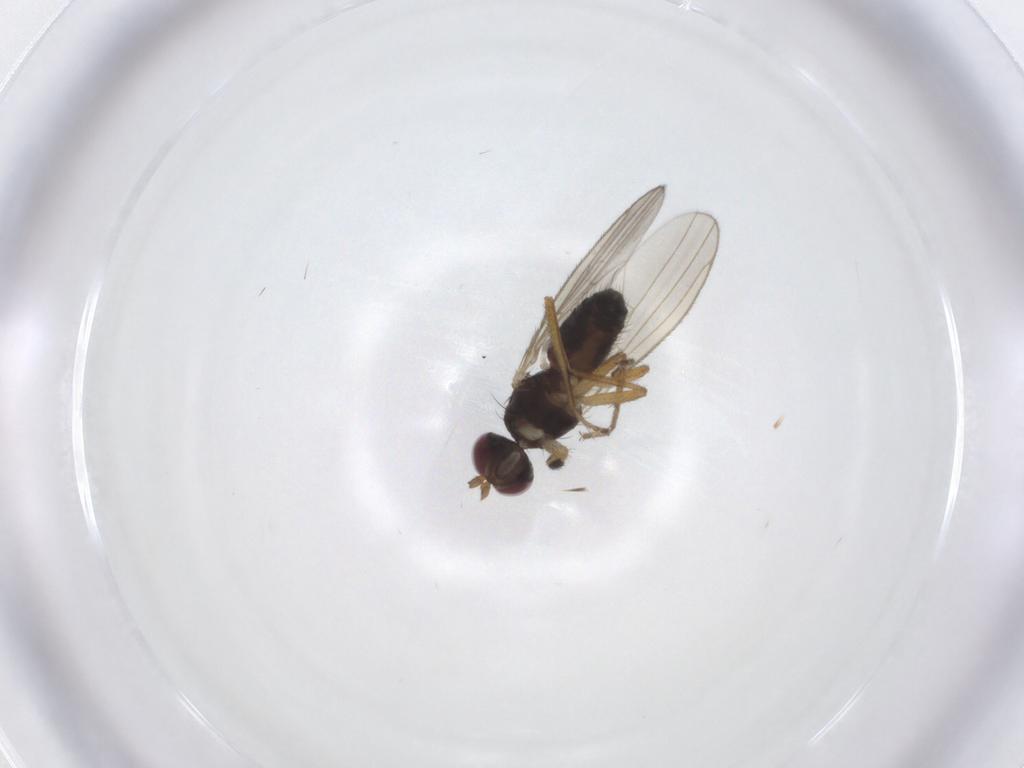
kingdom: Animalia
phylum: Arthropoda
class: Insecta
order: Diptera
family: Anthomyzidae
